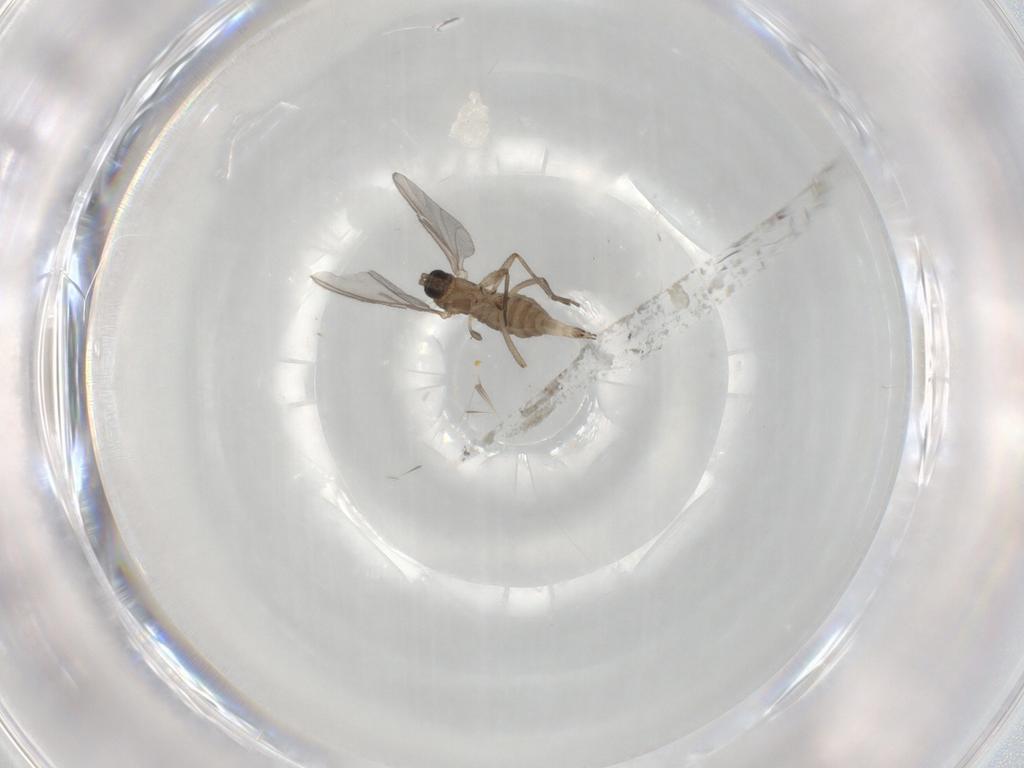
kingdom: Animalia
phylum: Arthropoda
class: Insecta
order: Diptera
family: Sciaridae
